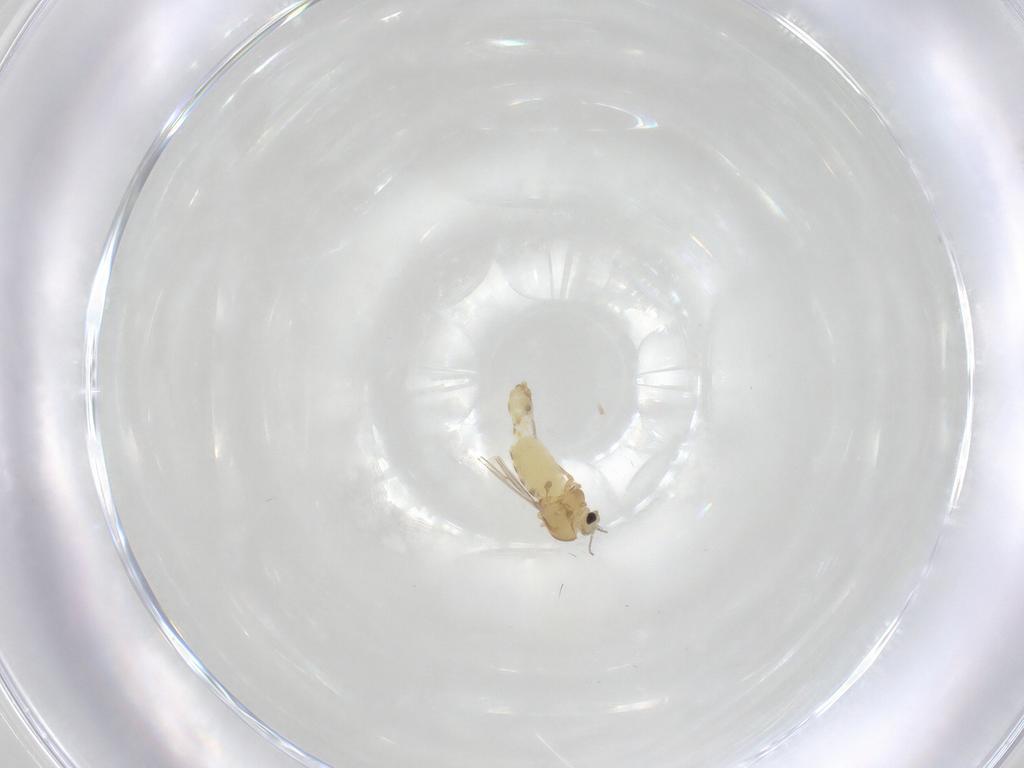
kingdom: Animalia
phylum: Arthropoda
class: Insecta
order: Diptera
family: Chironomidae
